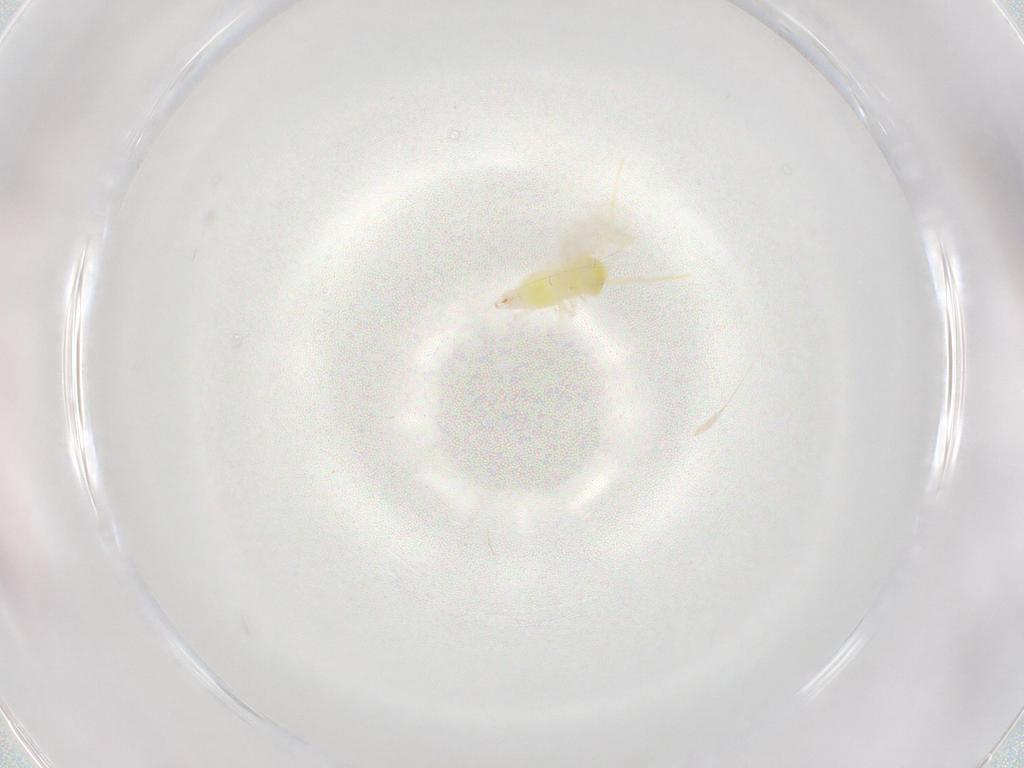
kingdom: Animalia
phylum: Arthropoda
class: Insecta
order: Hemiptera
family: Aleyrodidae
